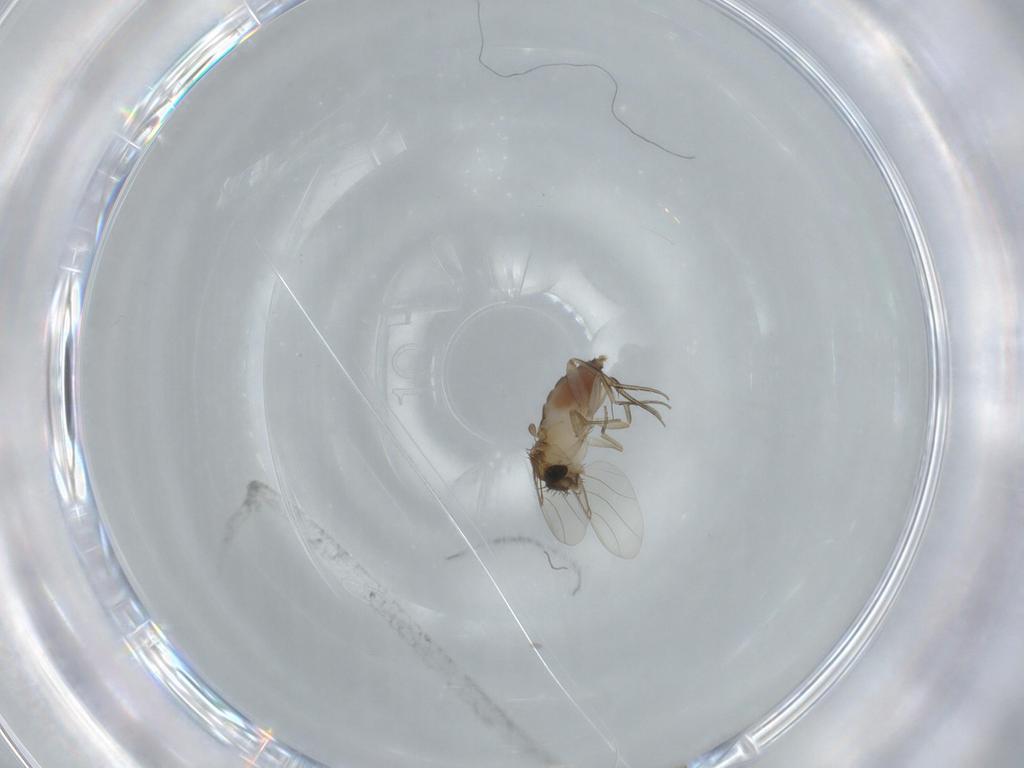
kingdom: Animalia
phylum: Arthropoda
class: Insecta
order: Diptera
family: Phoridae
